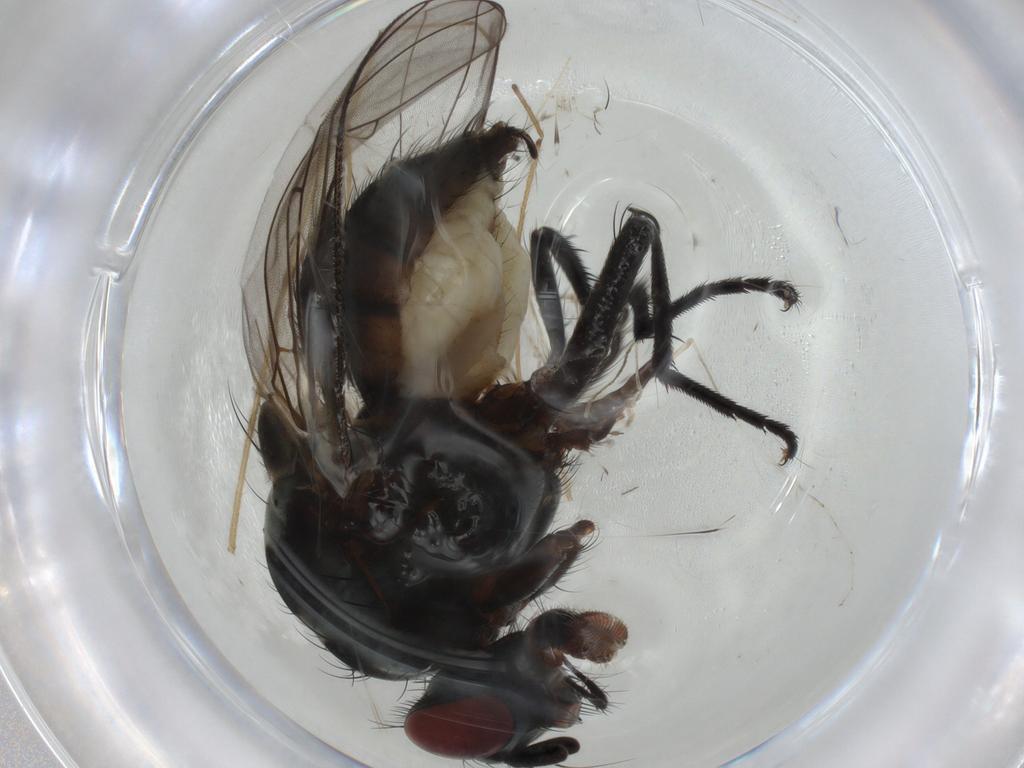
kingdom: Animalia
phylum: Arthropoda
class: Insecta
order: Diptera
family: Anthomyiidae
